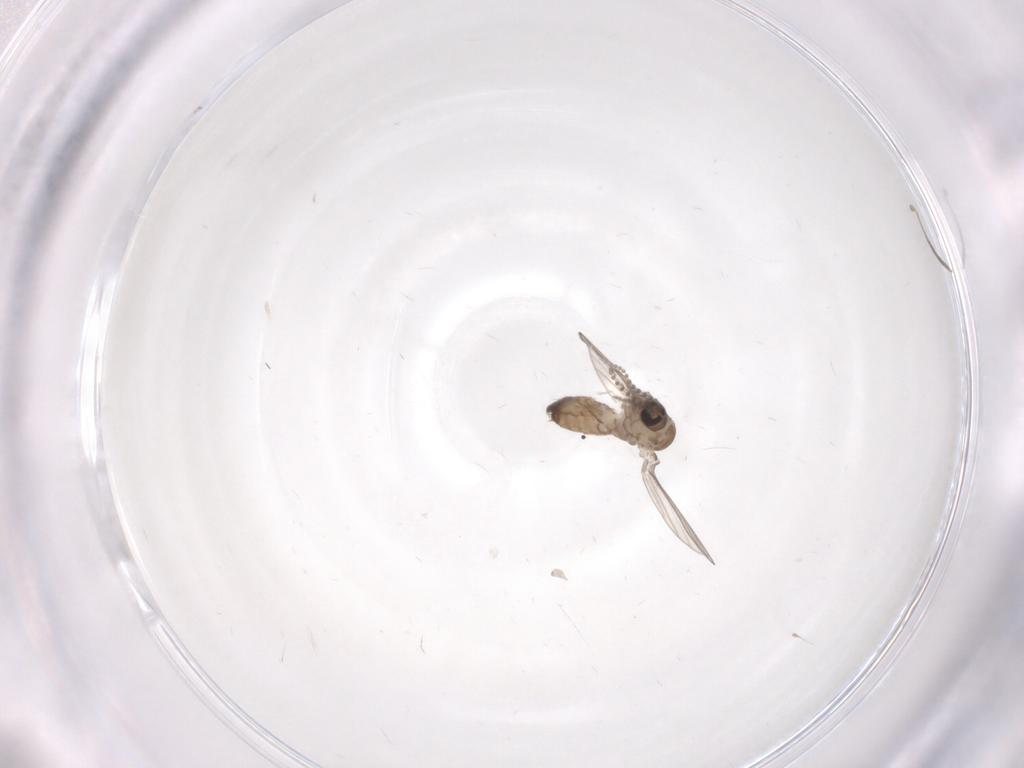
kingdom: Animalia
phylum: Arthropoda
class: Insecta
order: Diptera
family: Psychodidae
